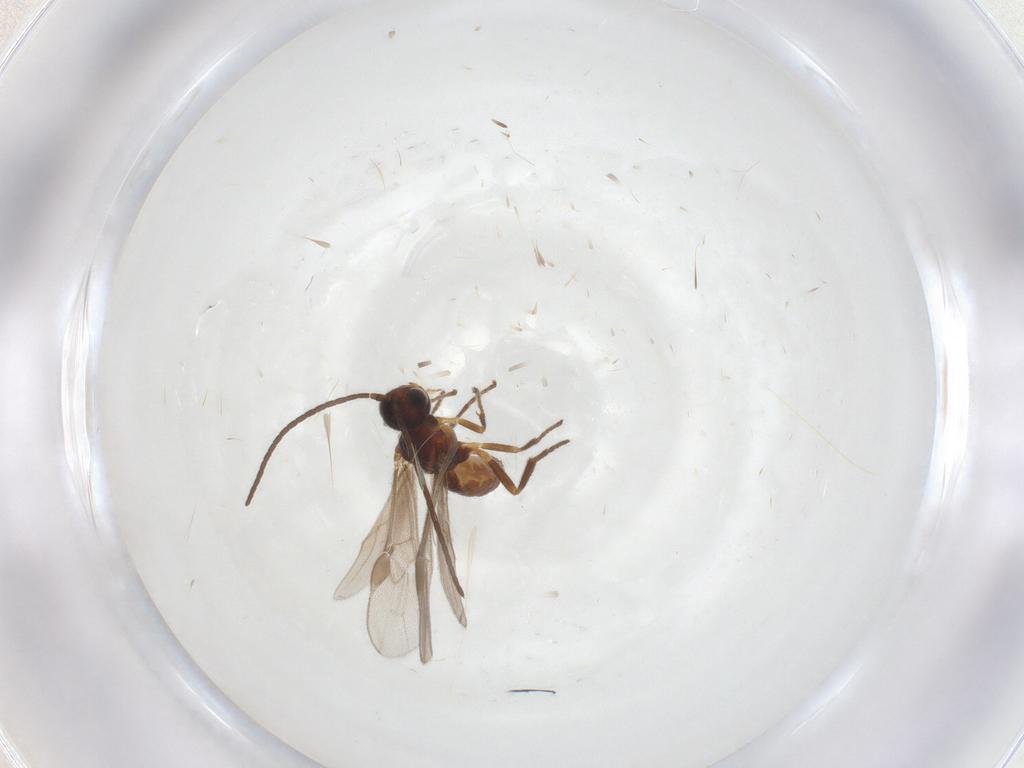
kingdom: Animalia
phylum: Arthropoda
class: Insecta
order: Hymenoptera
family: Braconidae
